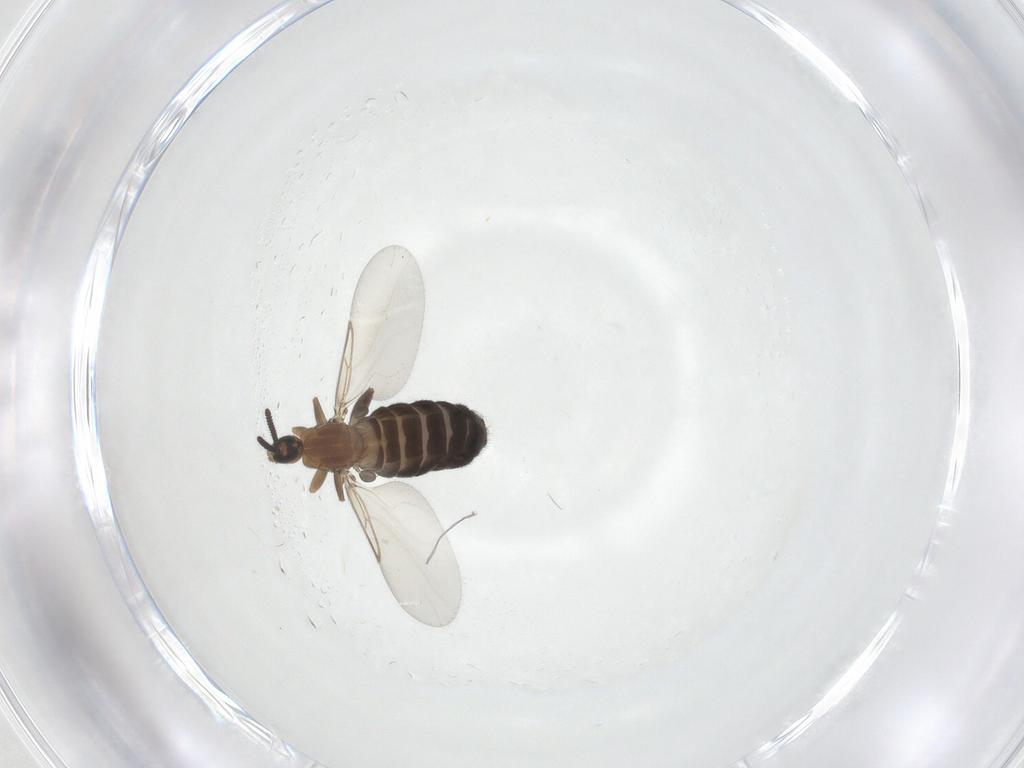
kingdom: Animalia
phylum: Arthropoda
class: Insecta
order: Diptera
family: Scatopsidae
